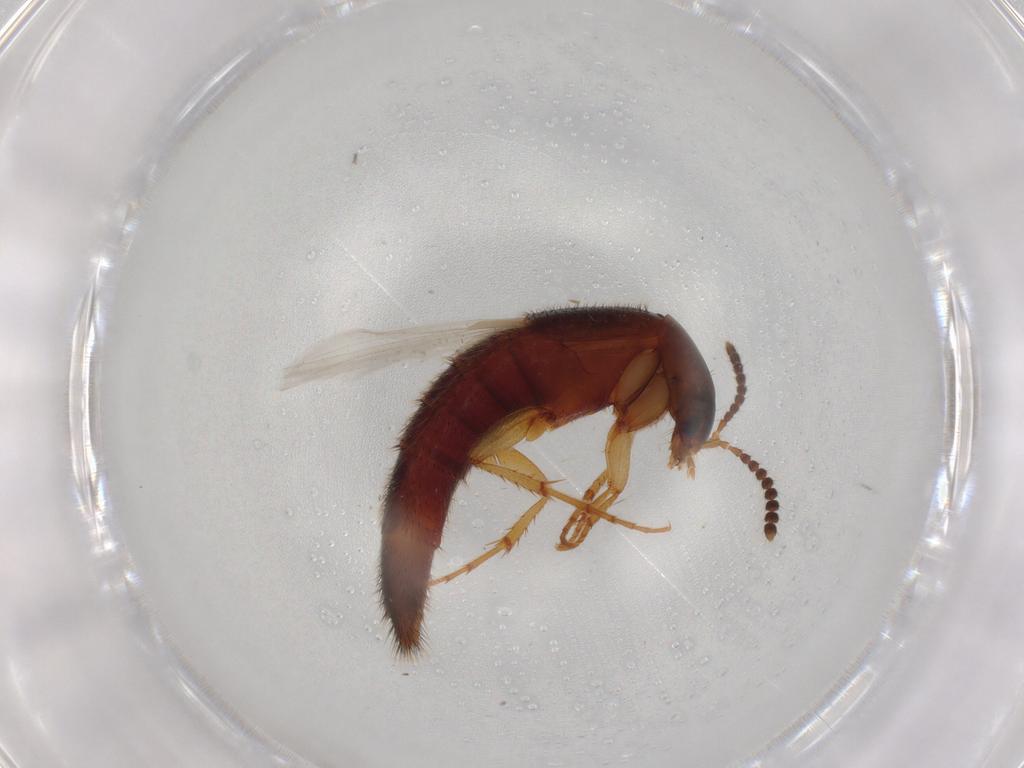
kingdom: Animalia
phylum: Arthropoda
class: Insecta
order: Coleoptera
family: Staphylinidae
